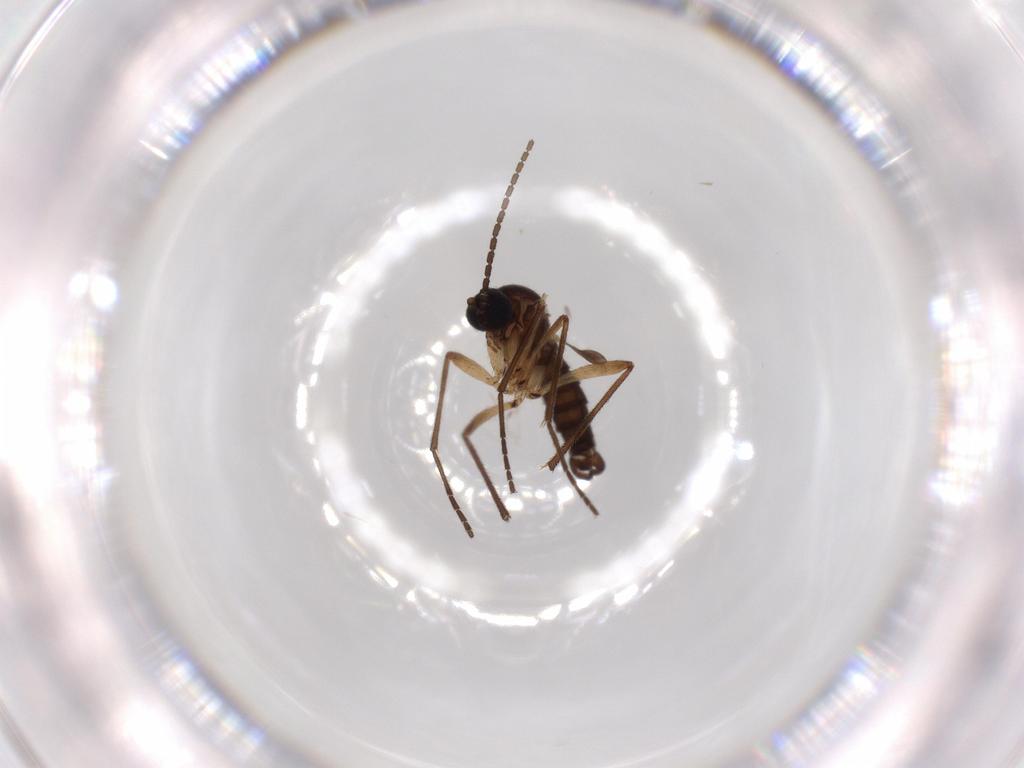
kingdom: Animalia
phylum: Arthropoda
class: Insecta
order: Diptera
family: Sciaridae
